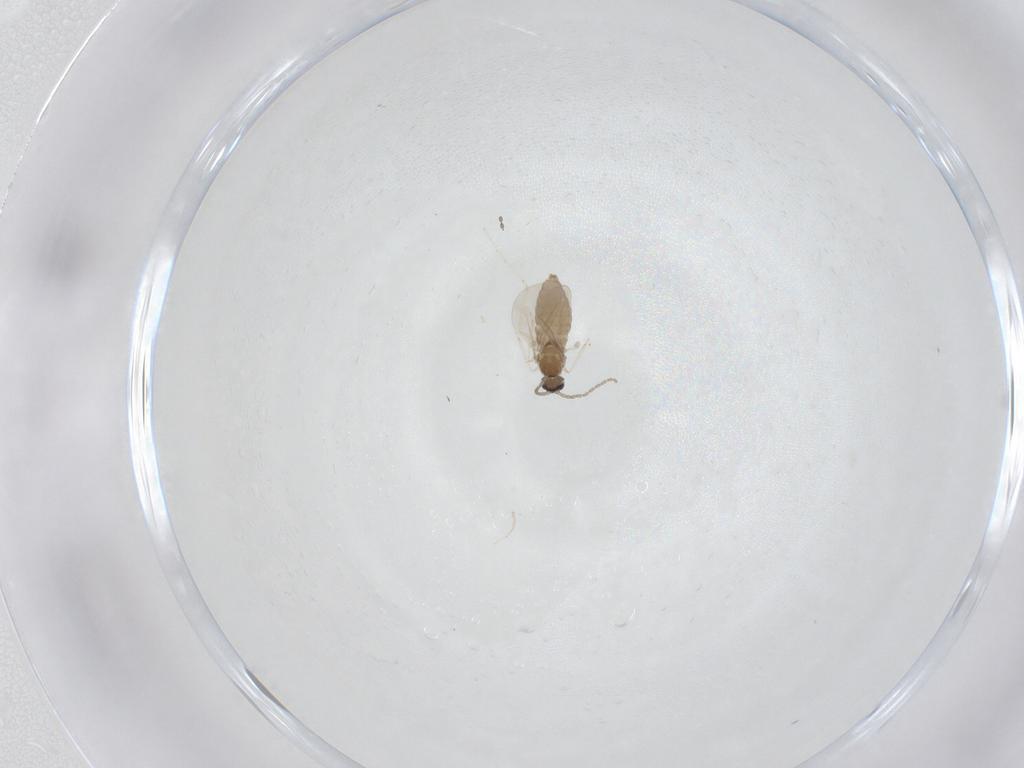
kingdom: Animalia
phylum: Arthropoda
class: Insecta
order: Diptera
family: Cecidomyiidae
